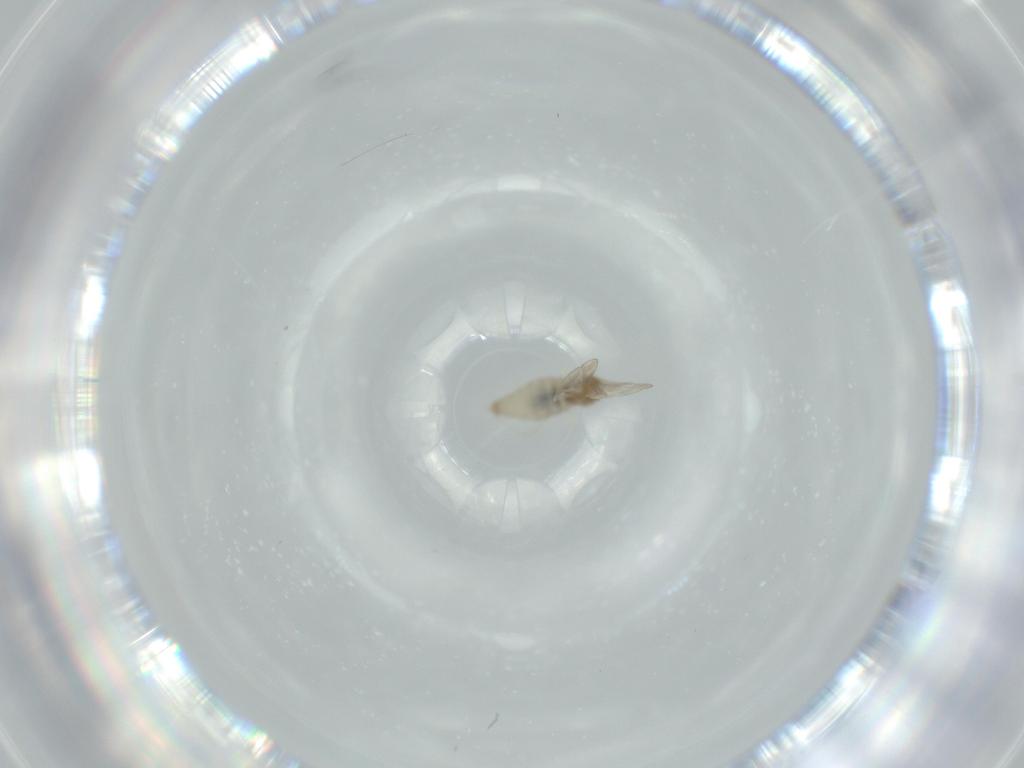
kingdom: Animalia
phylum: Arthropoda
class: Insecta
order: Diptera
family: Cecidomyiidae
